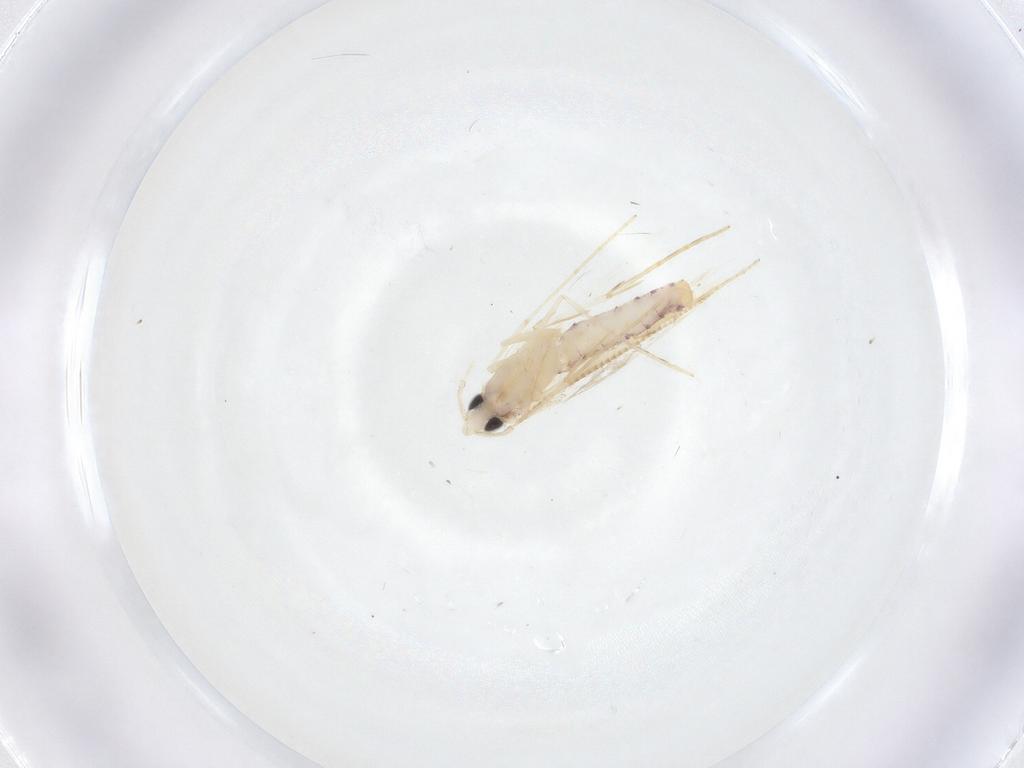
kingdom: Animalia
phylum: Arthropoda
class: Insecta
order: Lepidoptera
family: Saturniidae
